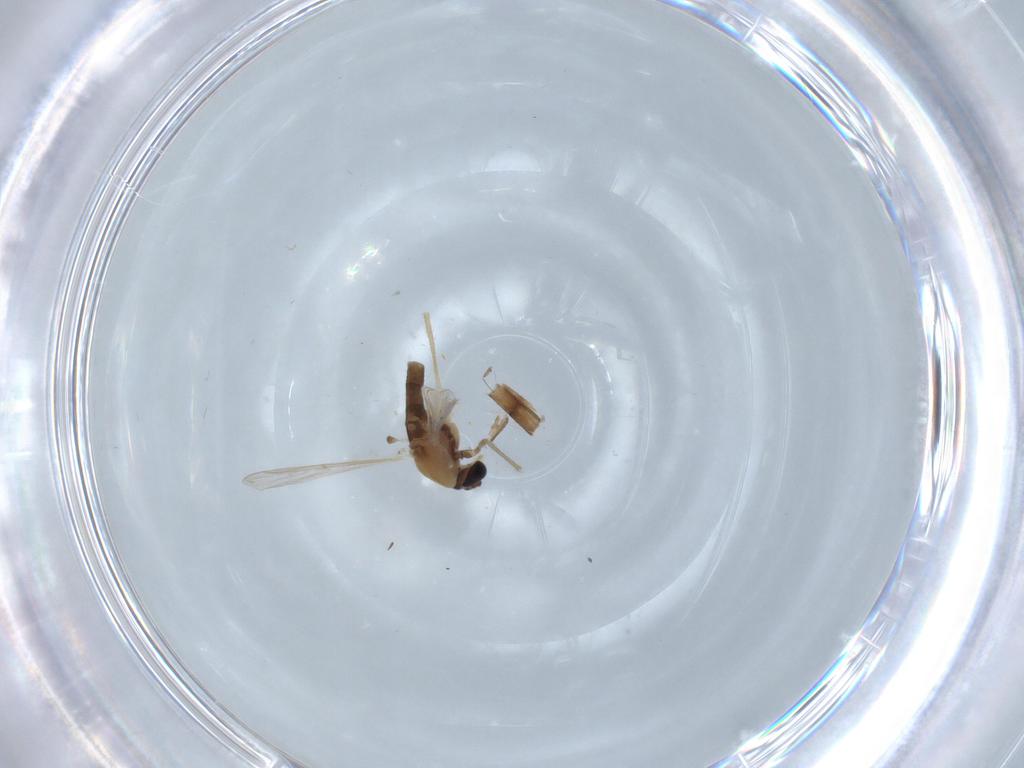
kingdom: Animalia
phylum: Arthropoda
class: Insecta
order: Diptera
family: Chironomidae
